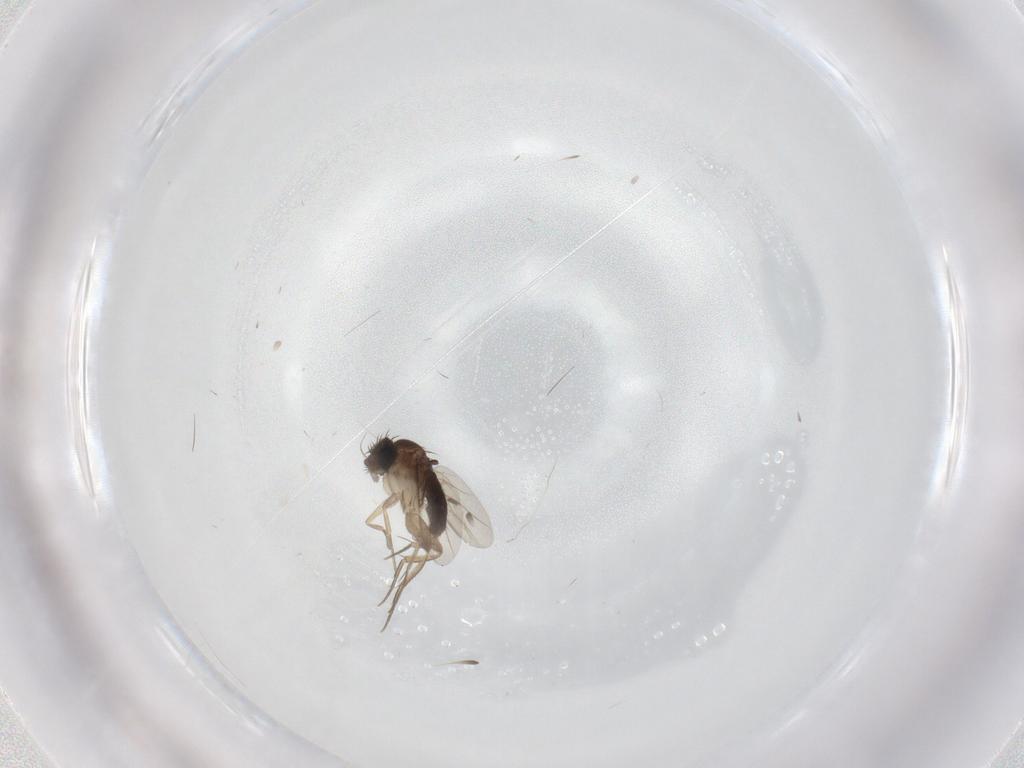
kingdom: Animalia
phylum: Arthropoda
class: Insecta
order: Diptera
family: Phoridae
